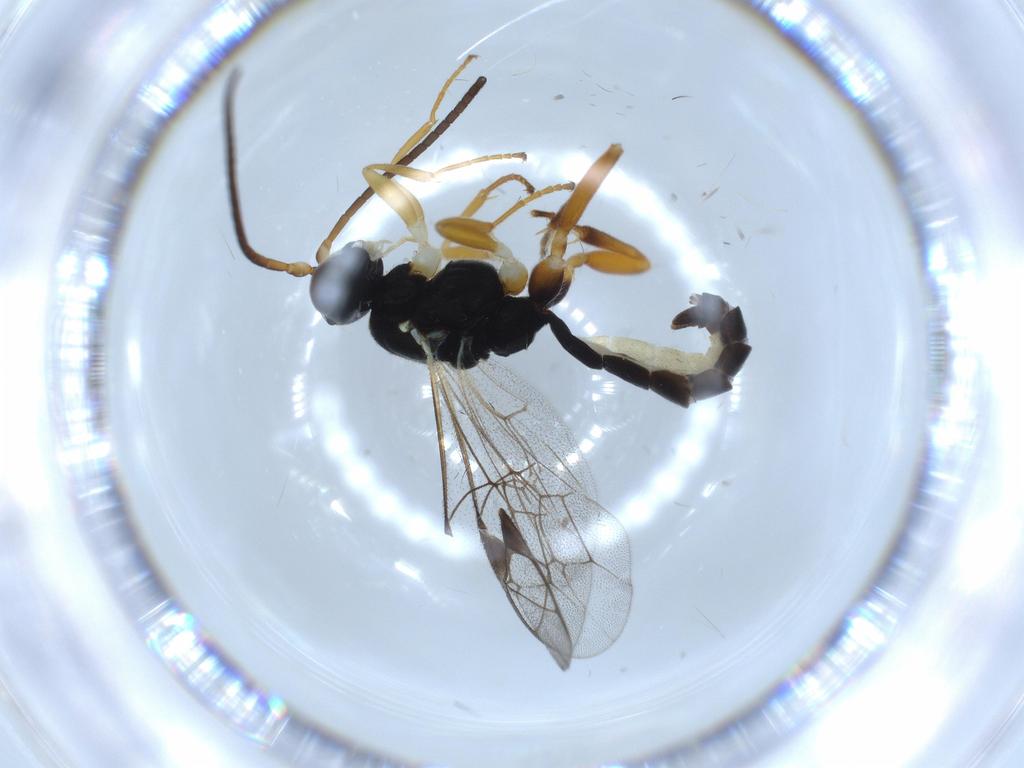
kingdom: Animalia
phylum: Arthropoda
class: Insecta
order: Hymenoptera
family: Ichneumonidae
